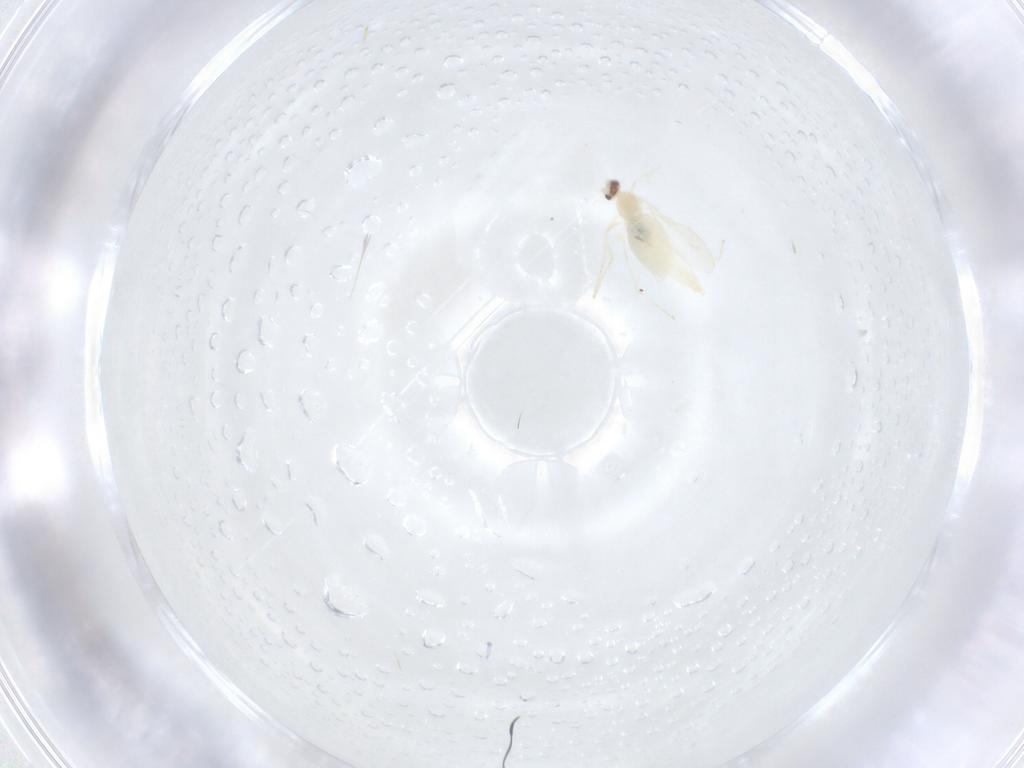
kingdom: Animalia
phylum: Arthropoda
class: Insecta
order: Diptera
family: Cecidomyiidae
